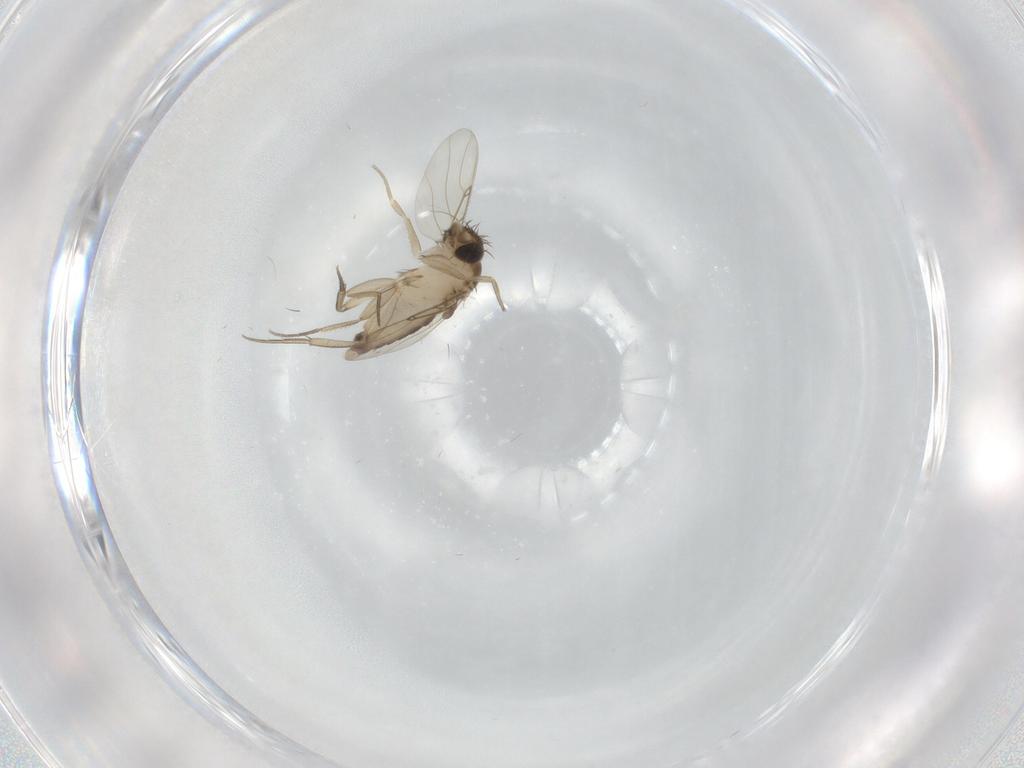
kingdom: Animalia
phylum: Arthropoda
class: Insecta
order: Diptera
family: Phoridae
